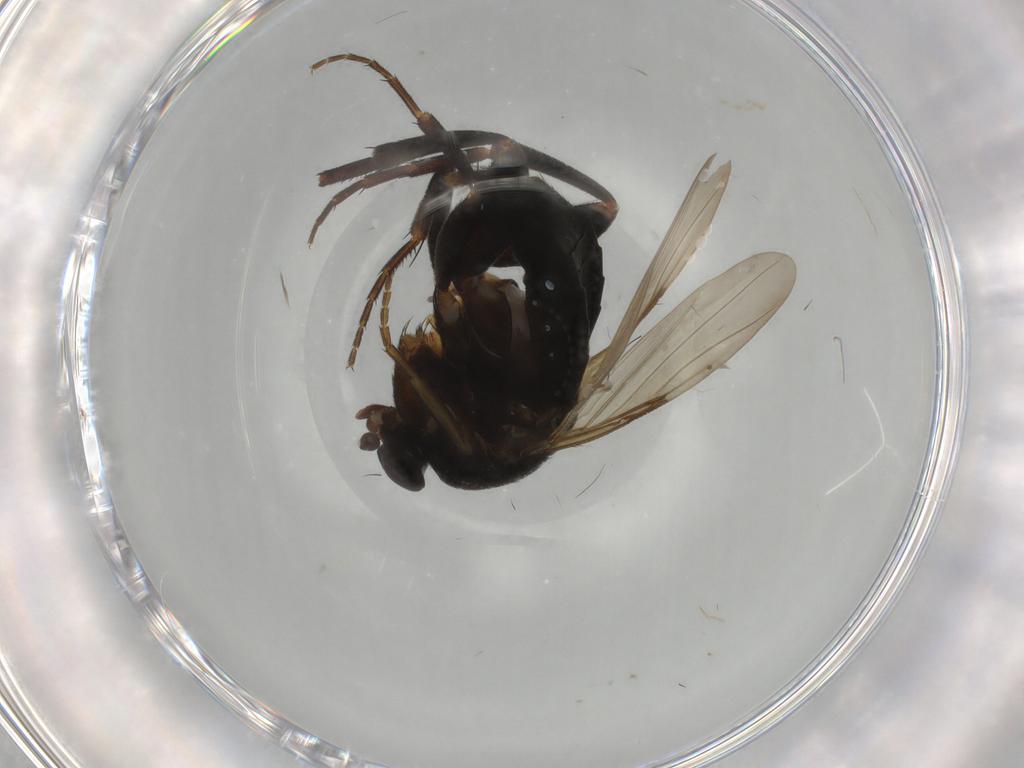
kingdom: Animalia
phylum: Arthropoda
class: Insecta
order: Diptera
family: Phoridae
